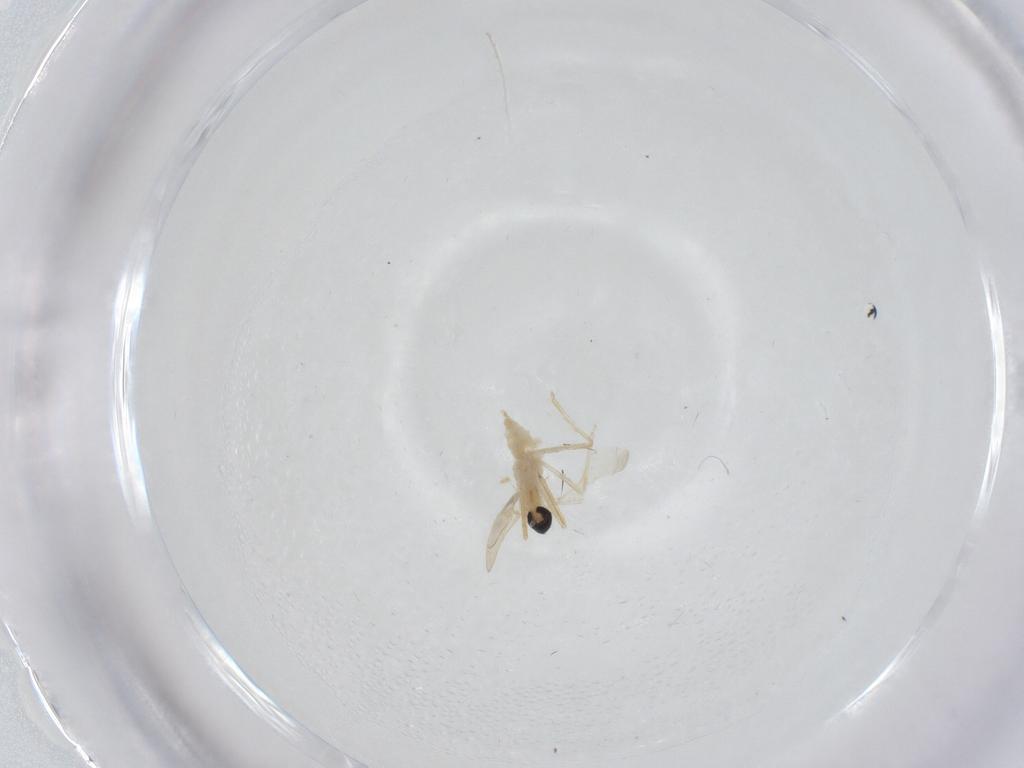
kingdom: Animalia
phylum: Arthropoda
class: Insecta
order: Diptera
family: Cecidomyiidae
